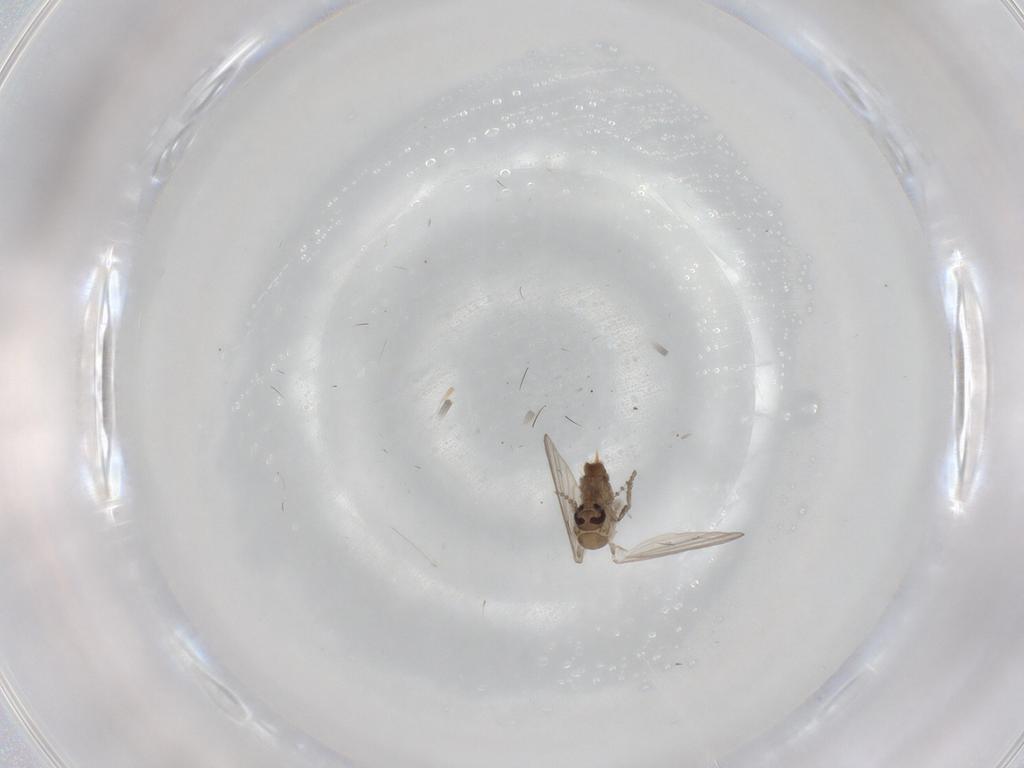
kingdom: Animalia
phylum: Arthropoda
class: Insecta
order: Diptera
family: Psychodidae
